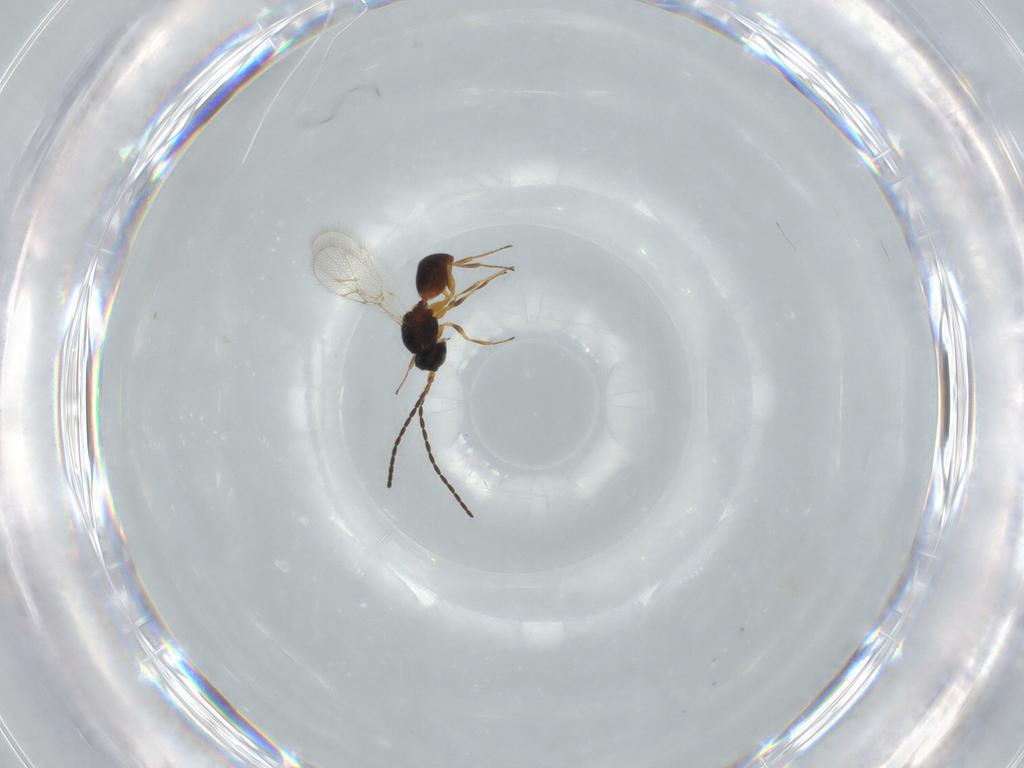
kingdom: Animalia
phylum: Arthropoda
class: Insecta
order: Hymenoptera
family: Figitidae
